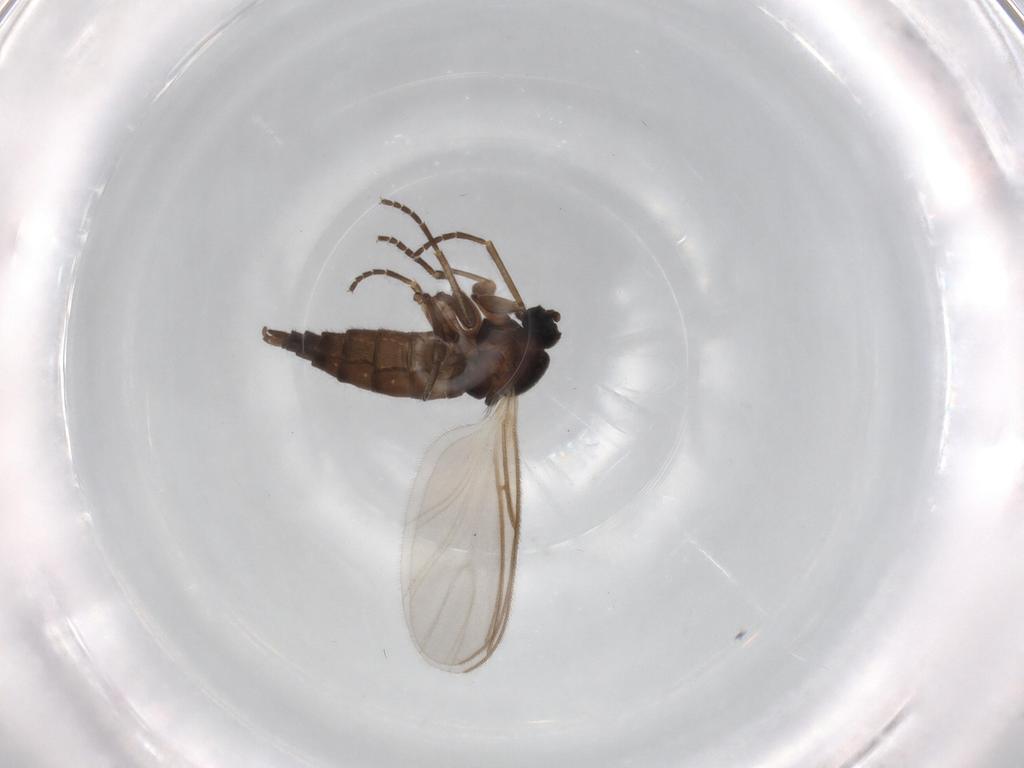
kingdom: Animalia
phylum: Arthropoda
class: Insecta
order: Diptera
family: Sciaridae
